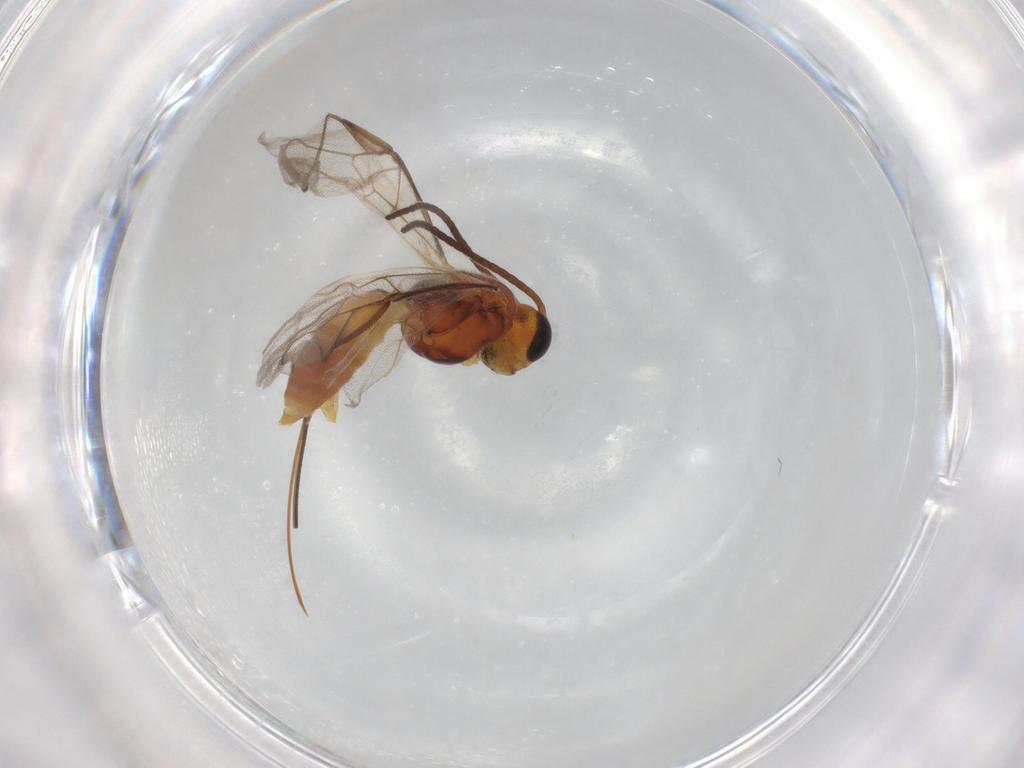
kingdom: Animalia
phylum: Arthropoda
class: Insecta
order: Hymenoptera
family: Braconidae
